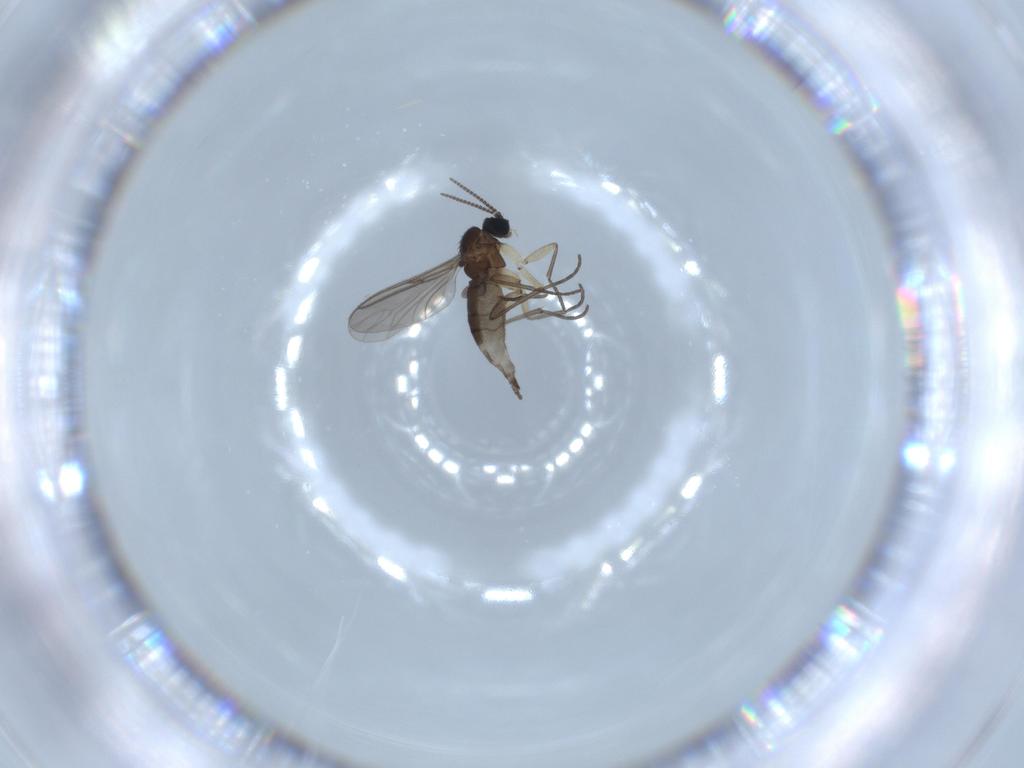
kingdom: Animalia
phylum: Arthropoda
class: Insecta
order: Diptera
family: Sciaridae
